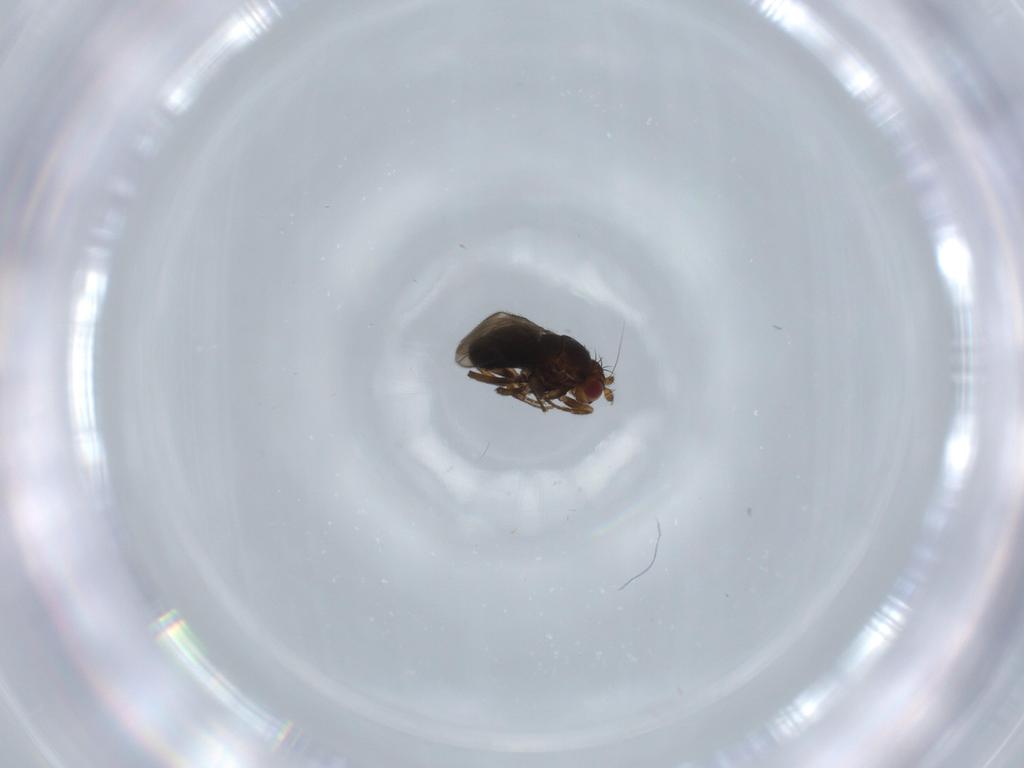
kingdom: Animalia
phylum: Arthropoda
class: Insecta
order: Diptera
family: Sphaeroceridae
